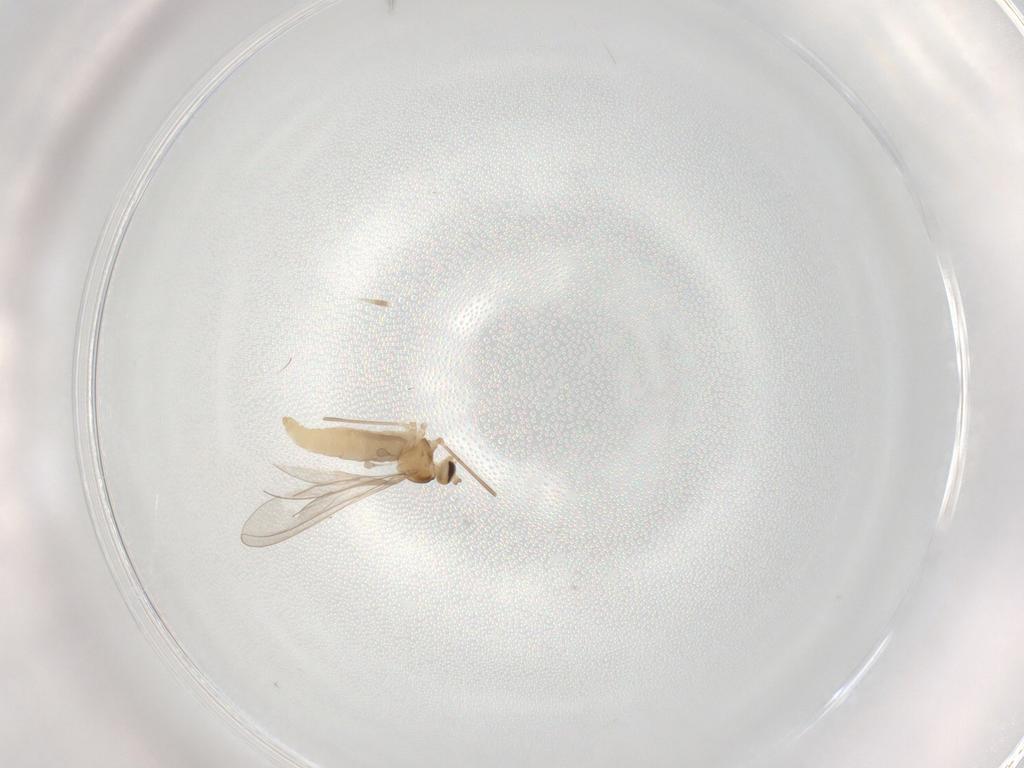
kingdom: Animalia
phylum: Arthropoda
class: Insecta
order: Diptera
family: Cecidomyiidae
